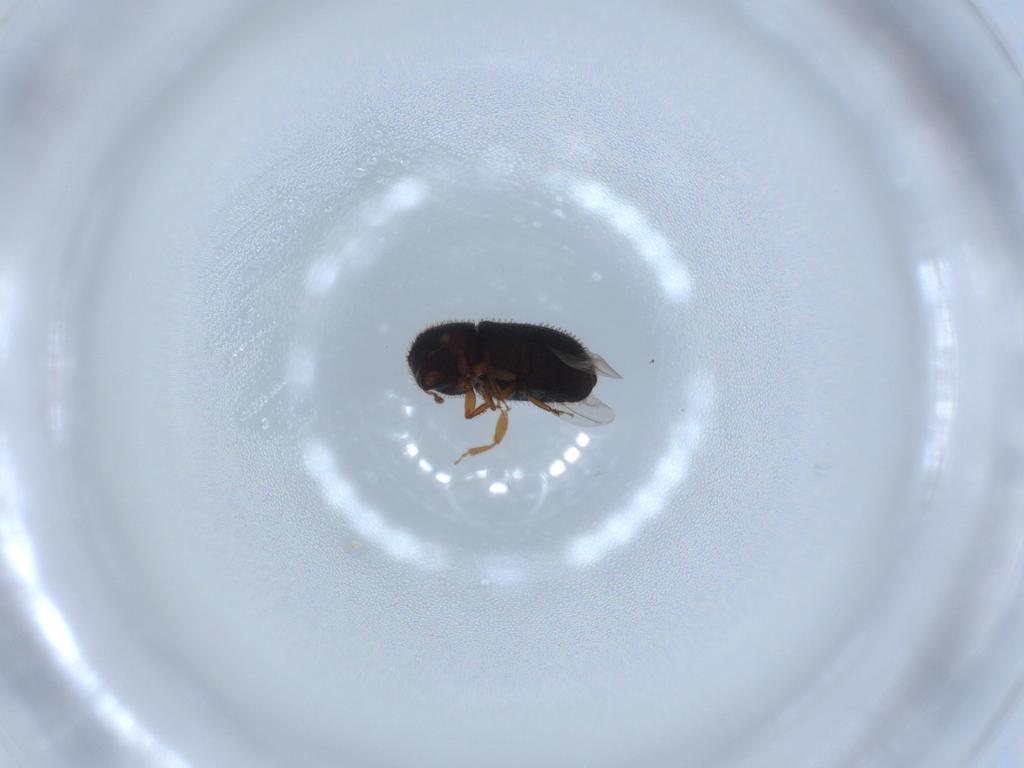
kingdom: Animalia
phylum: Arthropoda
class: Insecta
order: Coleoptera
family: Curculionidae
